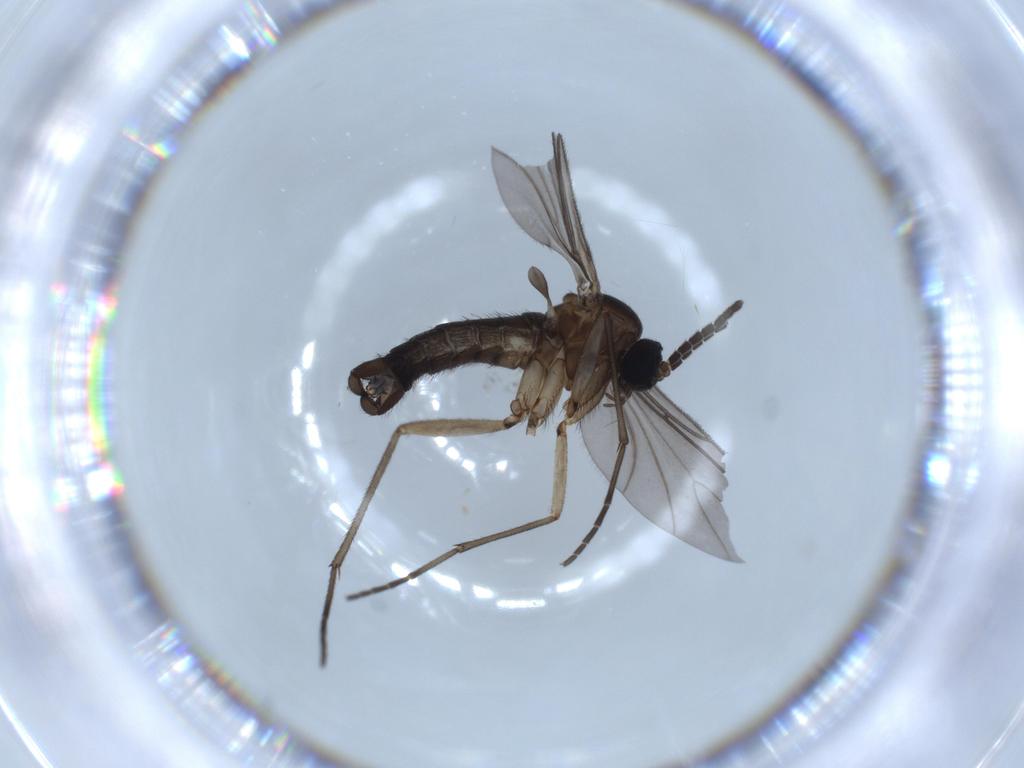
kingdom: Animalia
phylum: Arthropoda
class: Insecta
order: Diptera
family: Sciaridae
